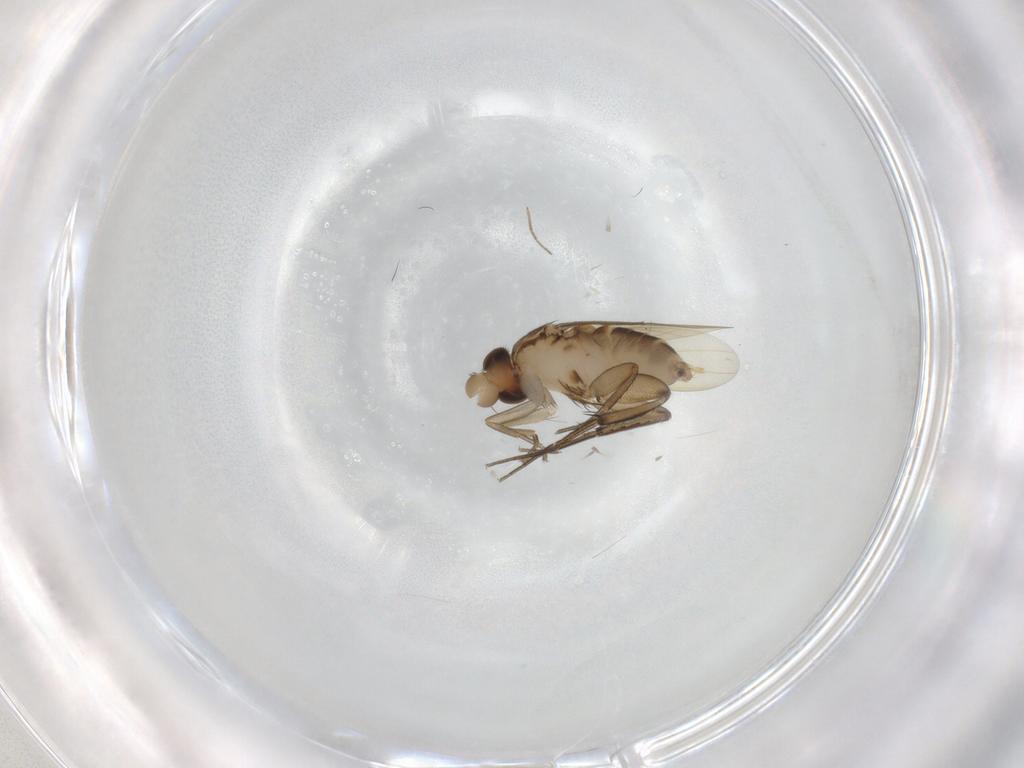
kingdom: Animalia
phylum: Arthropoda
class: Insecta
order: Diptera
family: Phoridae
